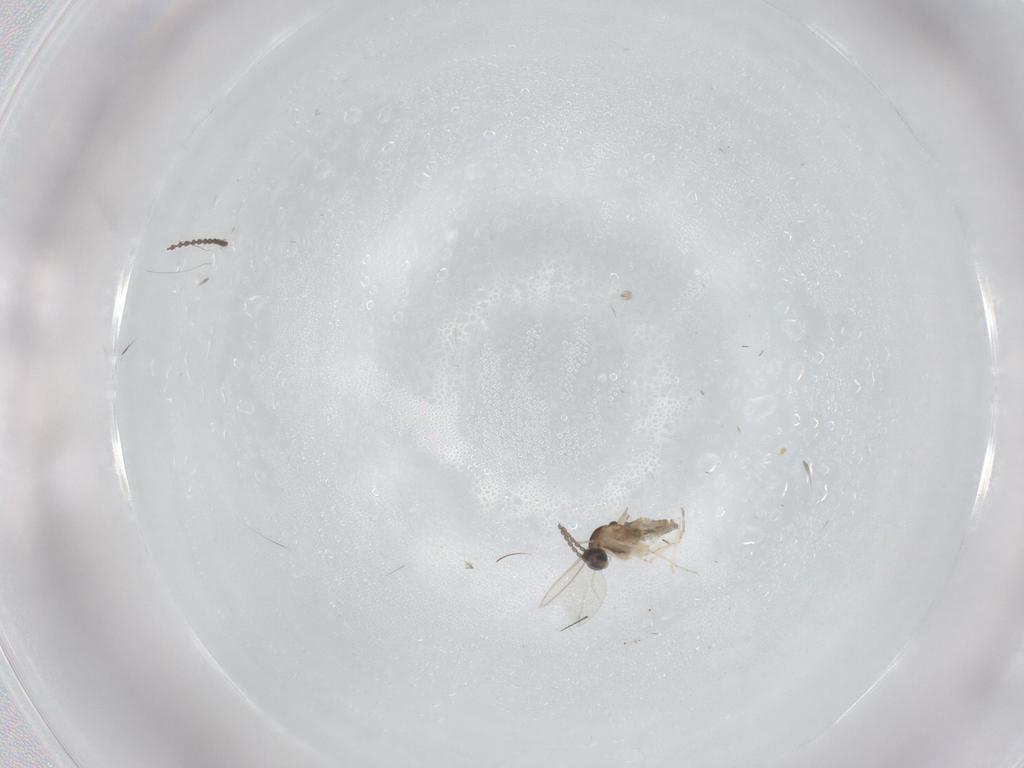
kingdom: Animalia
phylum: Arthropoda
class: Insecta
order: Diptera
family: Cecidomyiidae
